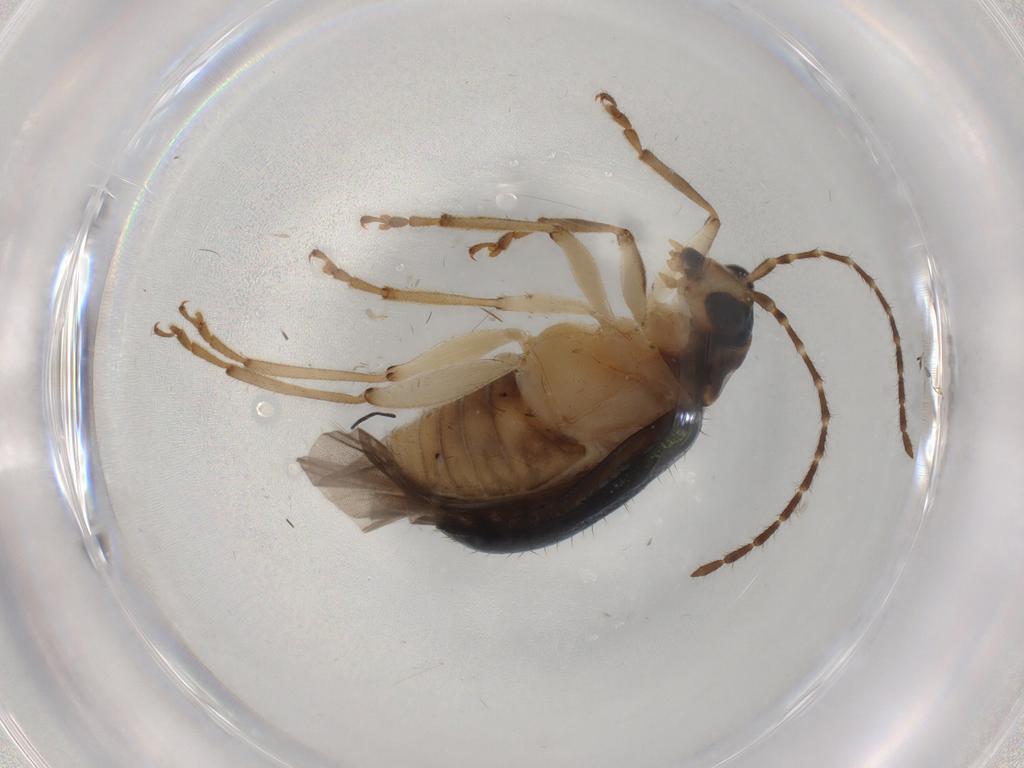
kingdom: Animalia
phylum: Arthropoda
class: Insecta
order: Coleoptera
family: Chrysomelidae
